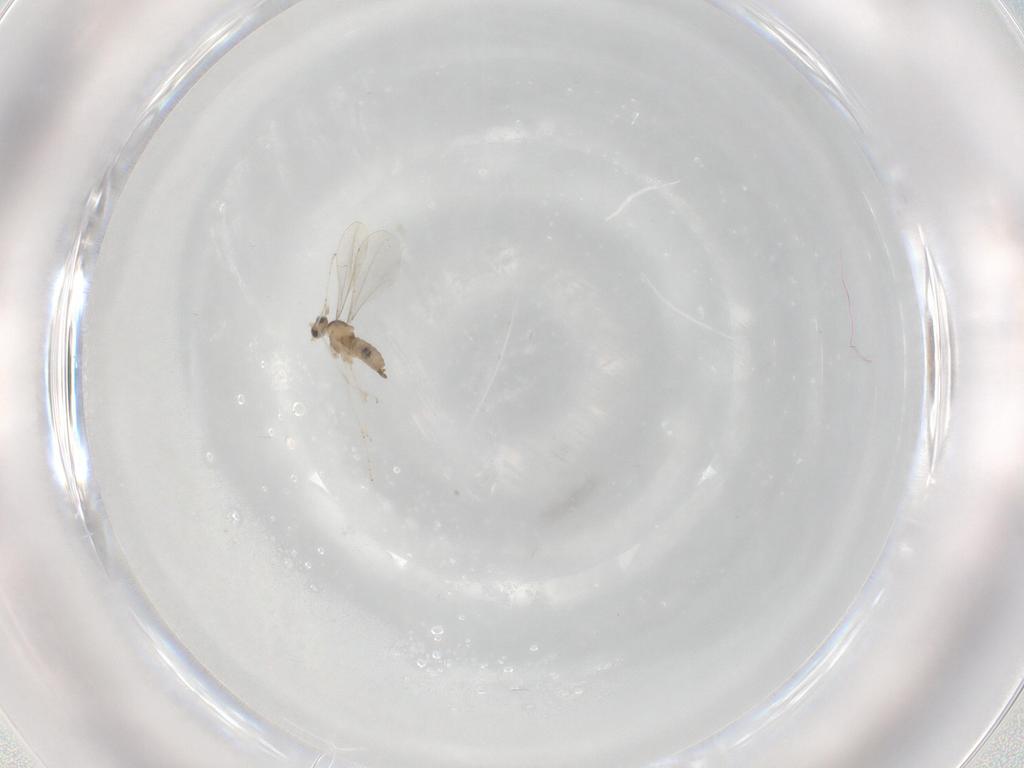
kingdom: Animalia
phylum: Arthropoda
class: Insecta
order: Diptera
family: Cecidomyiidae
